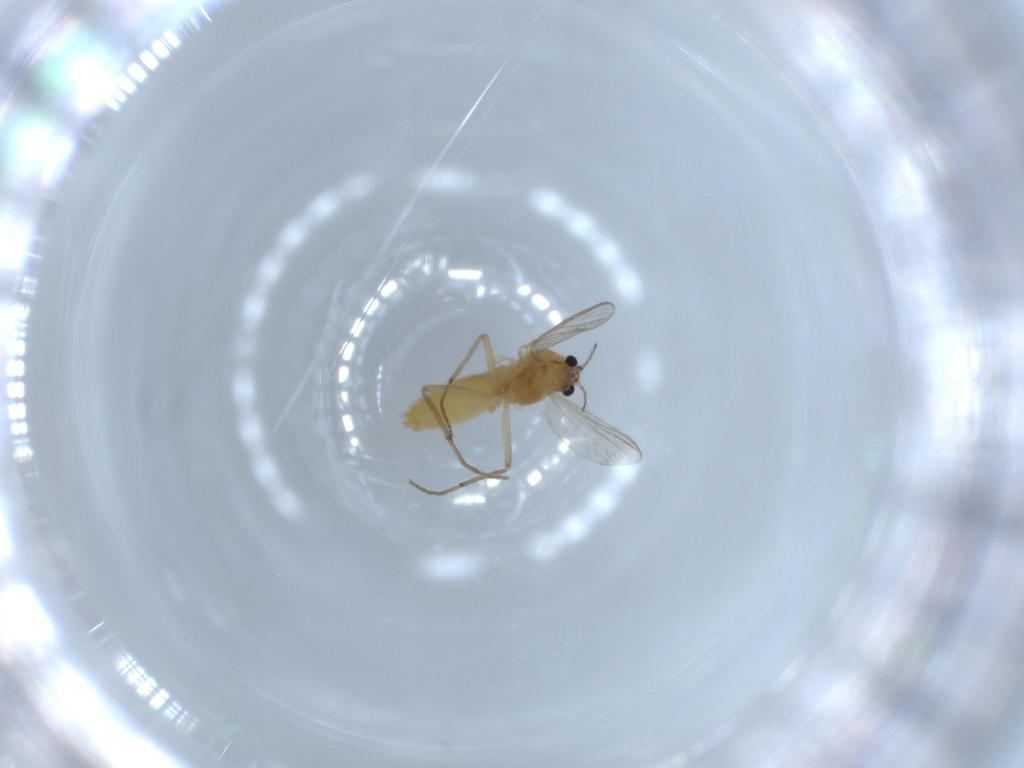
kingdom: Animalia
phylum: Arthropoda
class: Insecta
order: Diptera
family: Chironomidae
